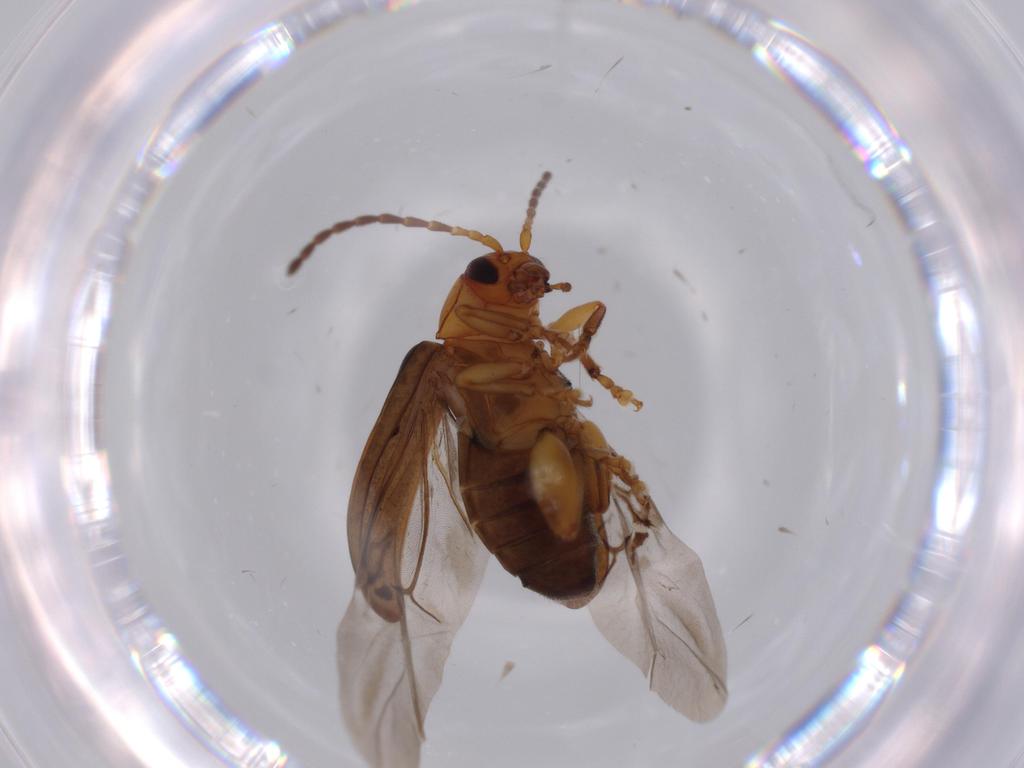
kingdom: Animalia
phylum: Arthropoda
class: Insecta
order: Coleoptera
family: Chrysomelidae
